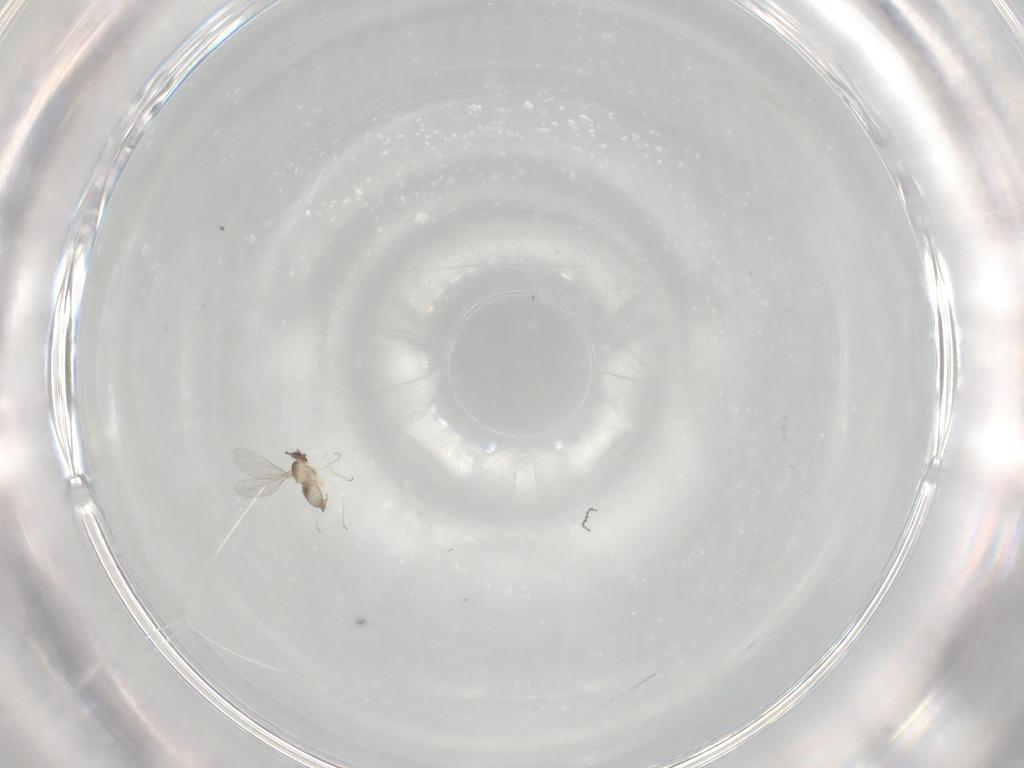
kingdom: Animalia
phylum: Arthropoda
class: Insecta
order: Diptera
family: Cecidomyiidae
